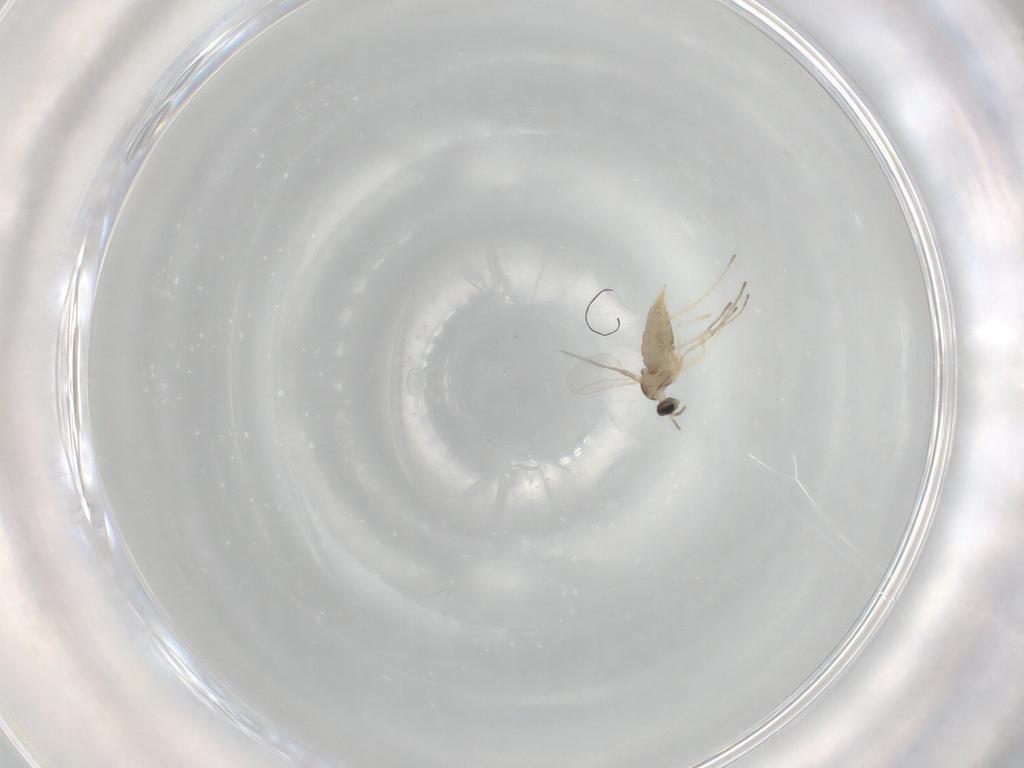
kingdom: Animalia
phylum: Arthropoda
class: Insecta
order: Diptera
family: Cecidomyiidae
